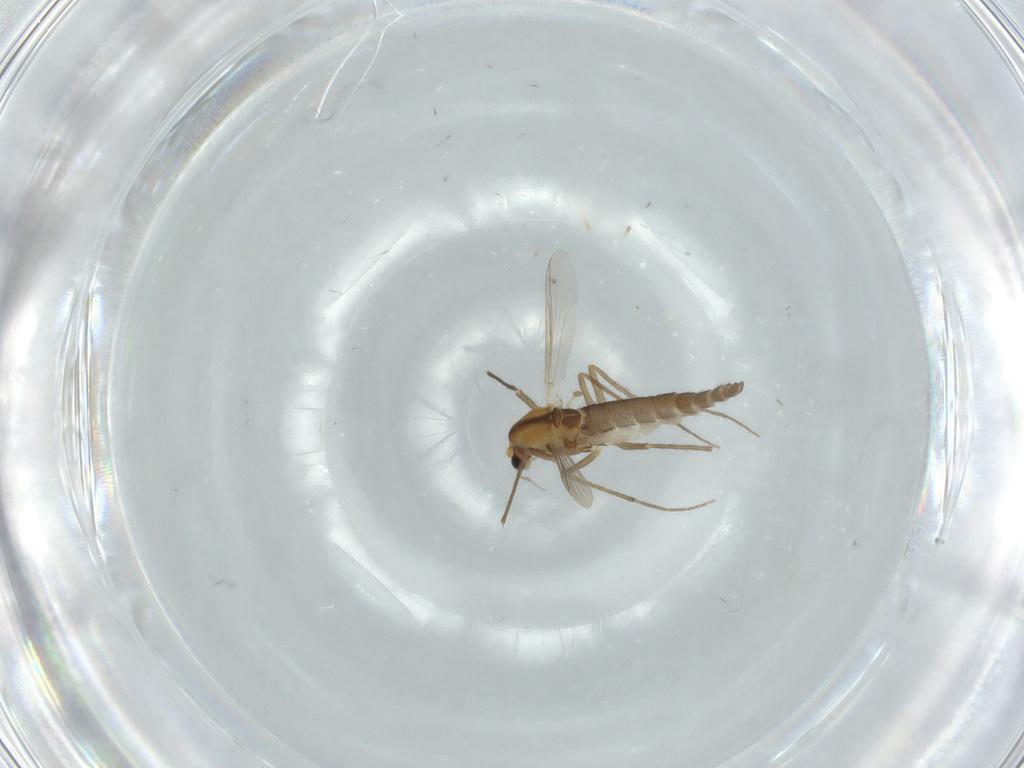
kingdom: Animalia
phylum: Arthropoda
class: Insecta
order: Diptera
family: Chironomidae
